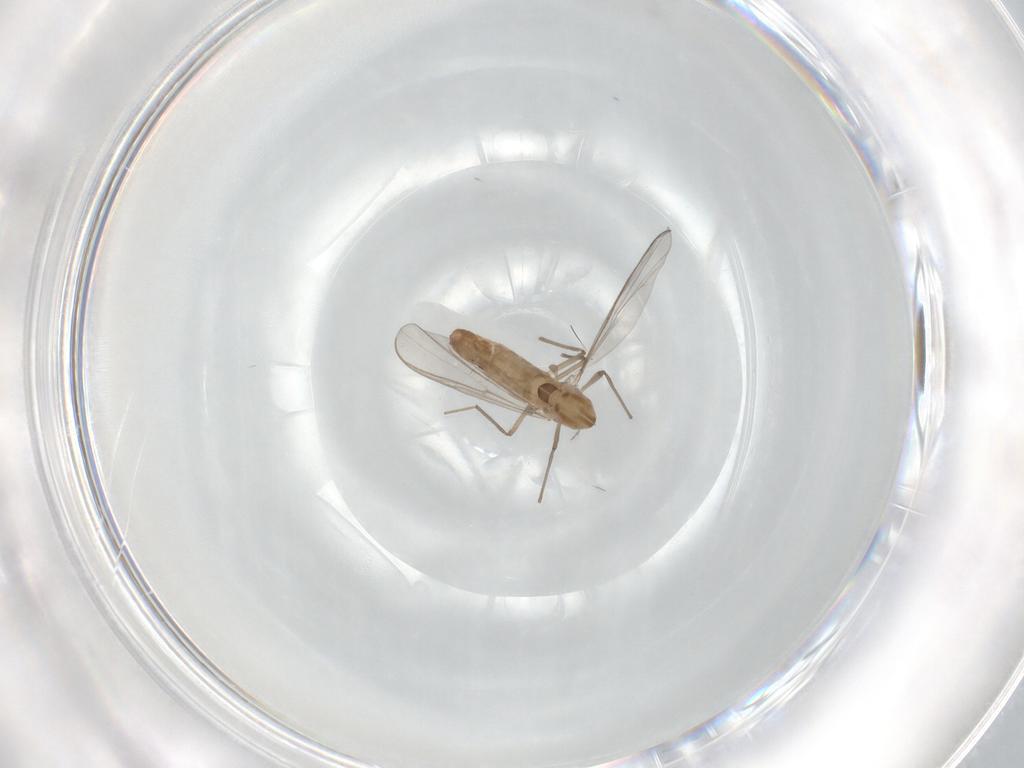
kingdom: Animalia
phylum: Arthropoda
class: Insecta
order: Diptera
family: Chironomidae
